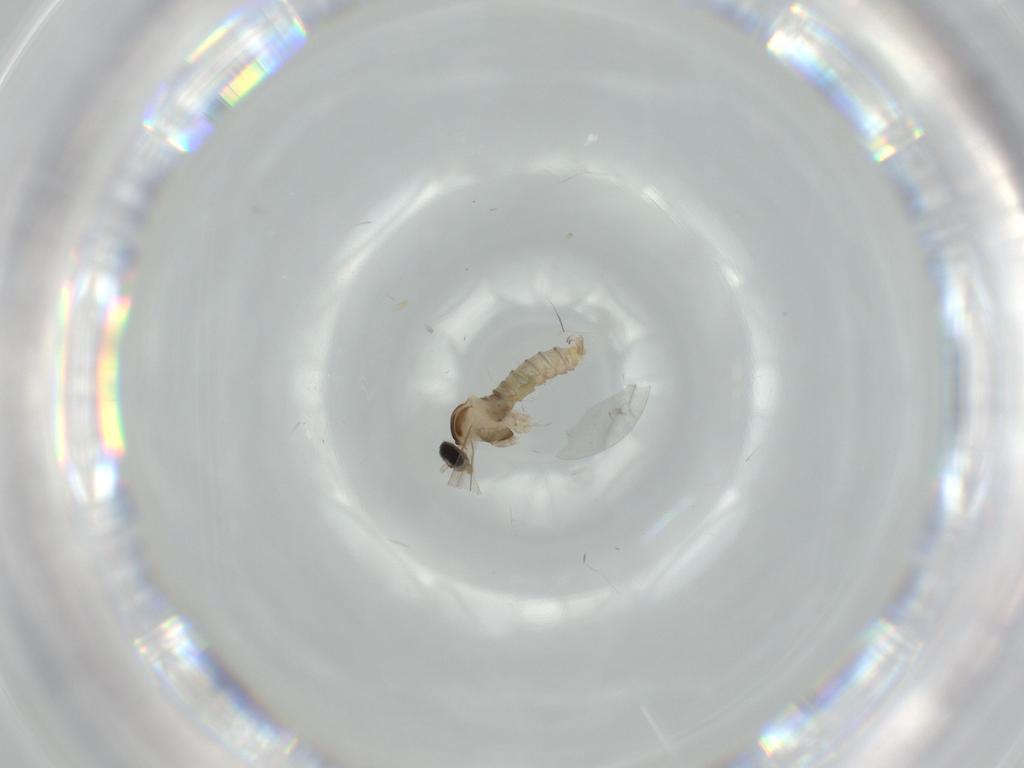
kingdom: Animalia
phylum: Arthropoda
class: Insecta
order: Diptera
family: Cecidomyiidae
